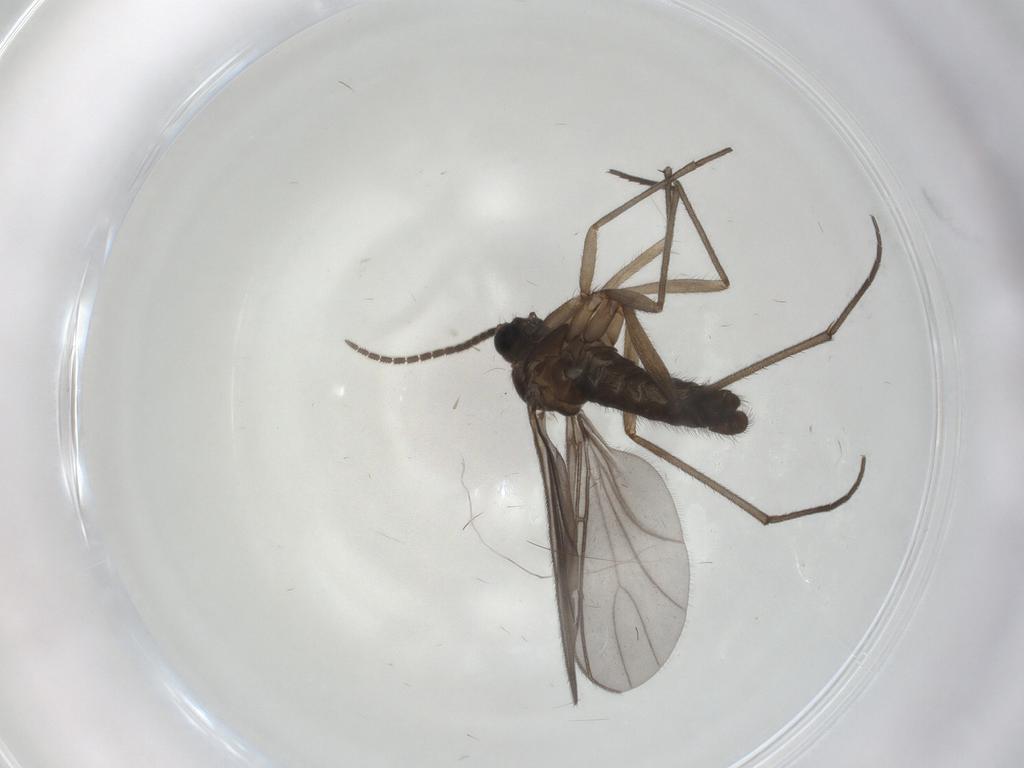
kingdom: Animalia
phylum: Arthropoda
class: Insecta
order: Diptera
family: Sciaridae
